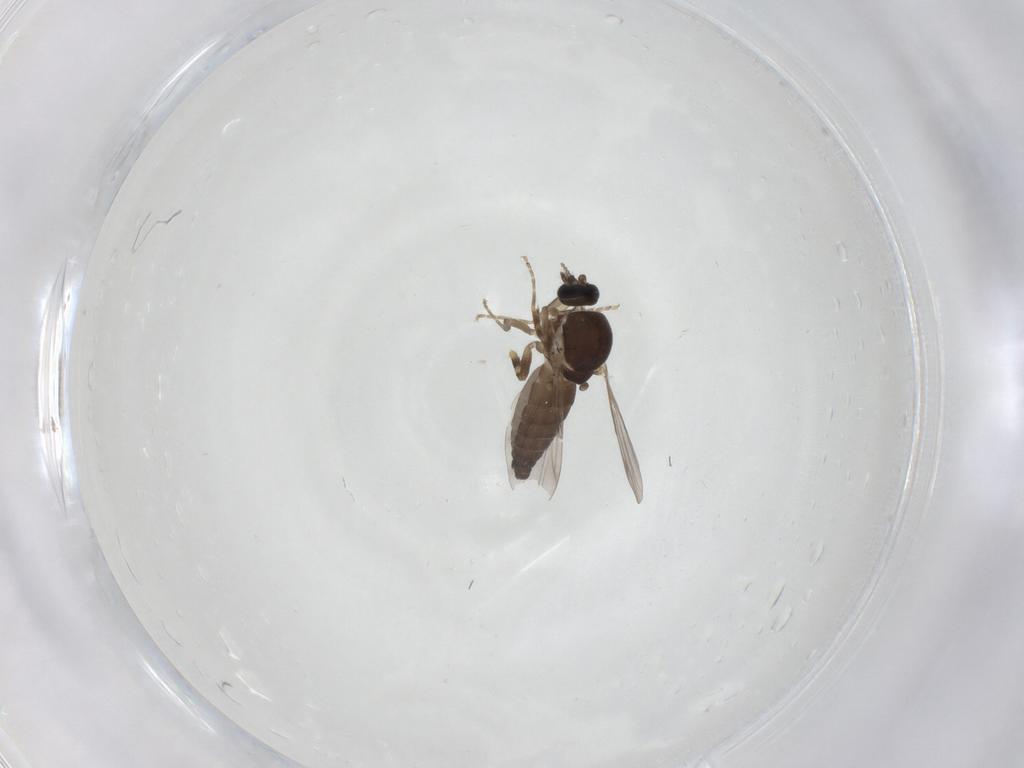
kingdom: Animalia
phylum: Arthropoda
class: Insecta
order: Diptera
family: Ceratopogonidae
